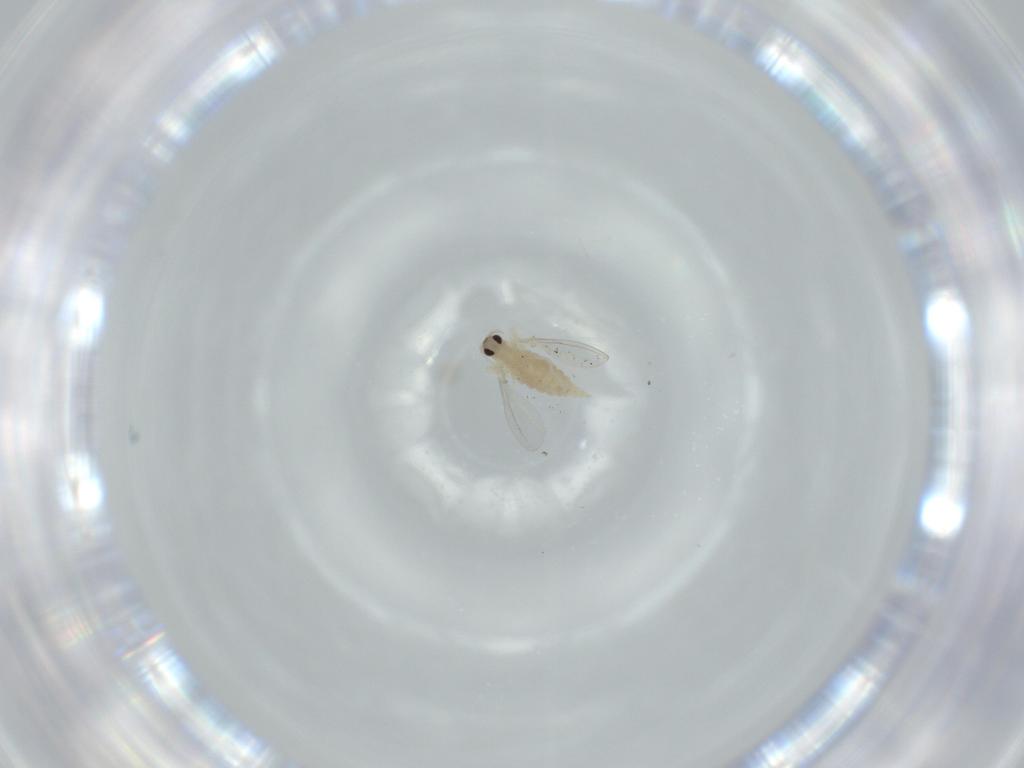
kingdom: Animalia
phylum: Arthropoda
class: Insecta
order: Diptera
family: Cecidomyiidae
